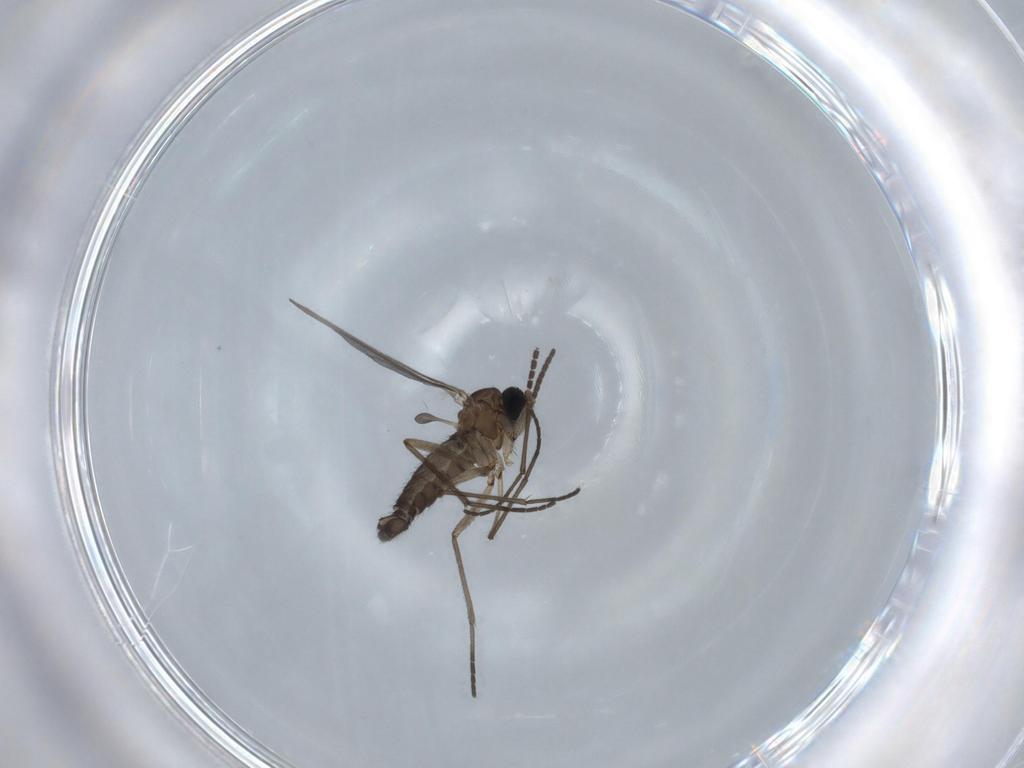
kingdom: Animalia
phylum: Arthropoda
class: Insecta
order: Diptera
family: Sciaridae
